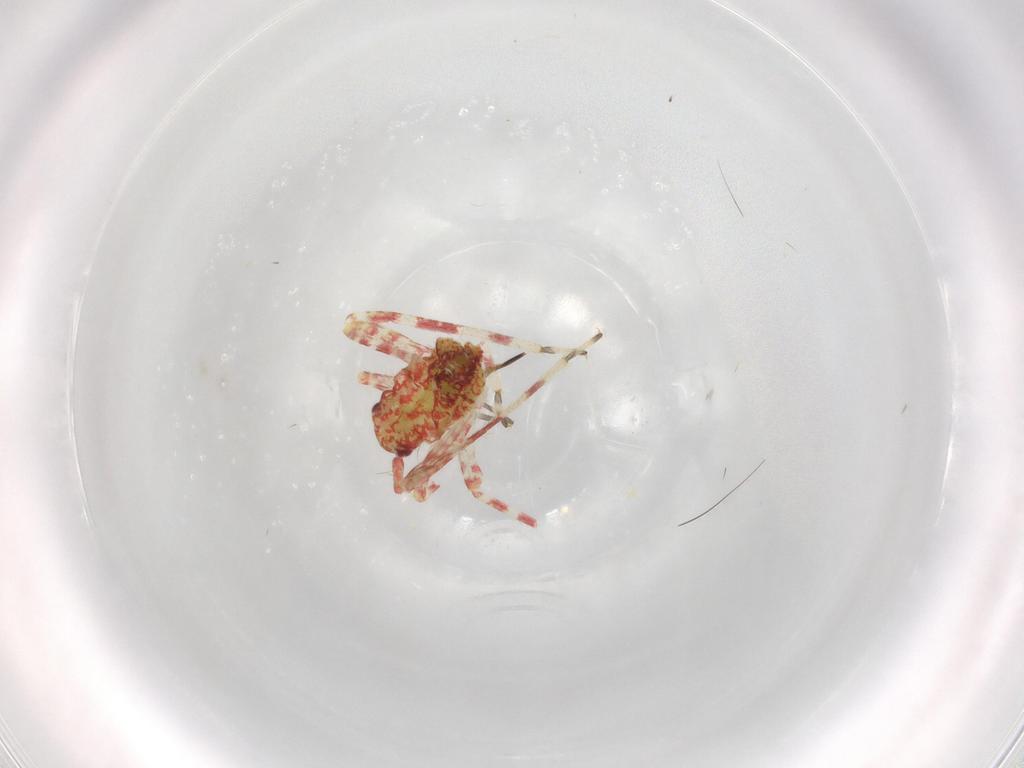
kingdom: Animalia
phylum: Arthropoda
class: Insecta
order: Hemiptera
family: Miridae
